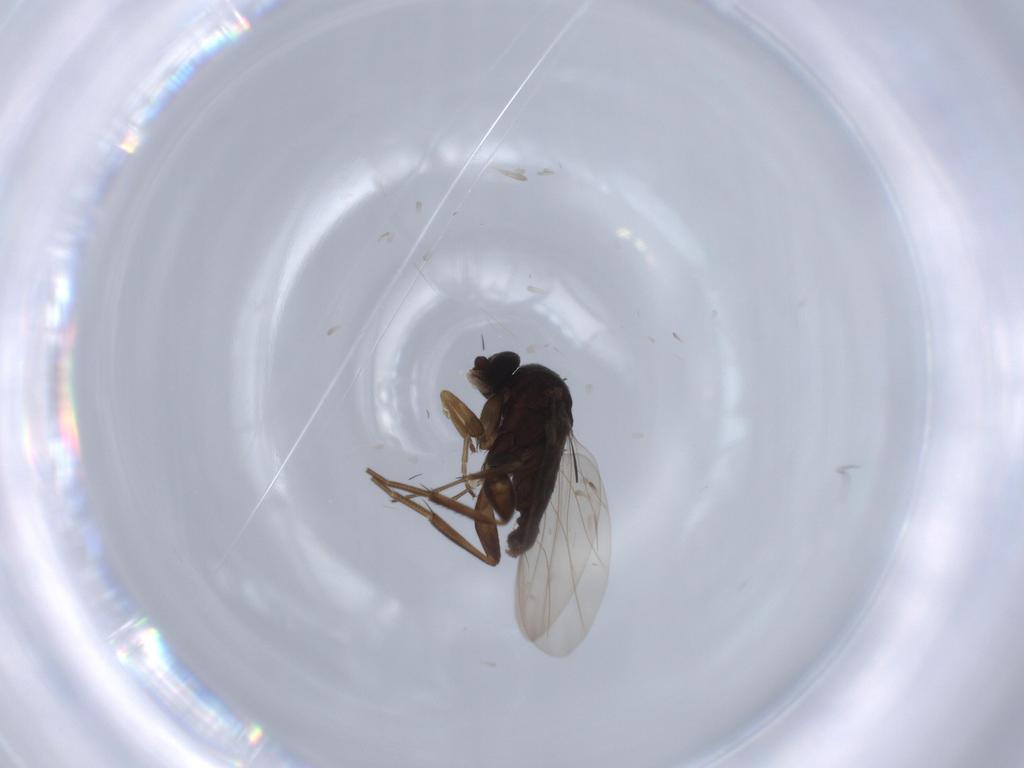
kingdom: Animalia
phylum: Arthropoda
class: Insecta
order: Diptera
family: Phoridae
